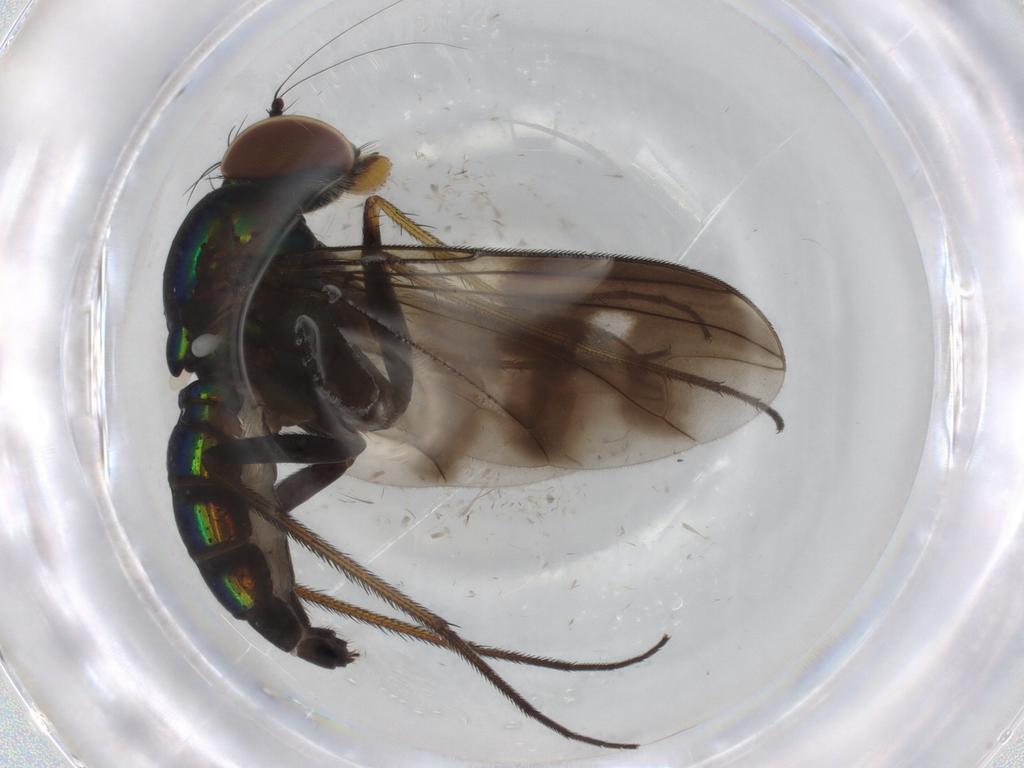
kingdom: Animalia
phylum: Arthropoda
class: Insecta
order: Diptera
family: Dolichopodidae
